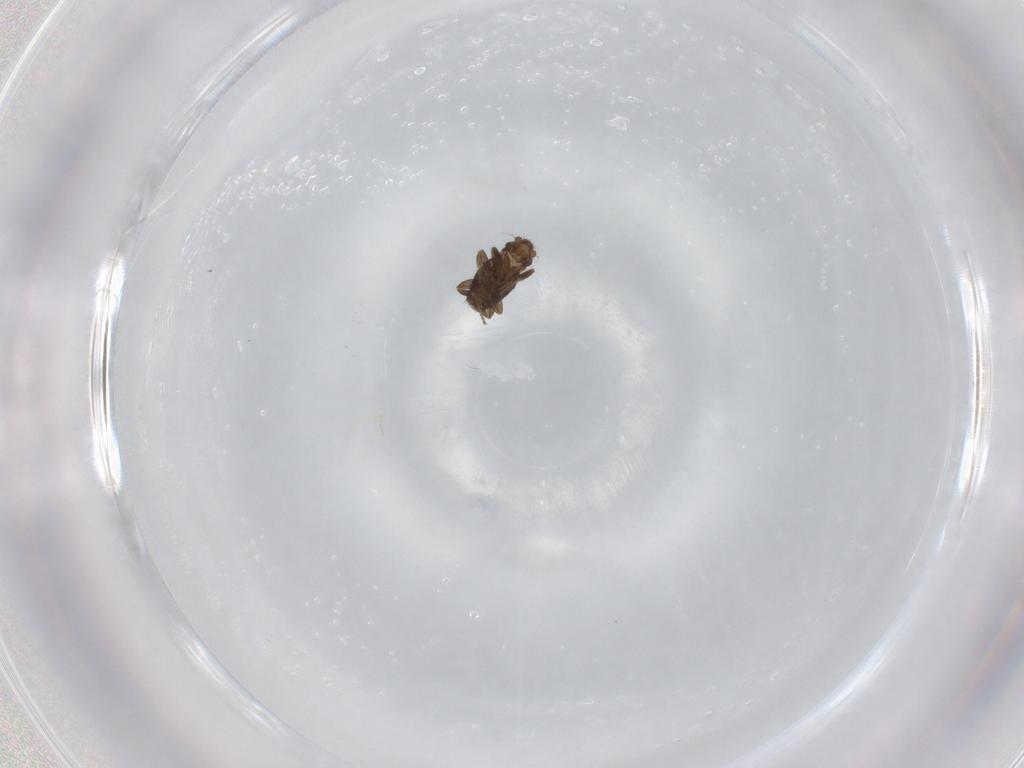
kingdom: Animalia
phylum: Arthropoda
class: Insecta
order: Diptera
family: Phoridae
